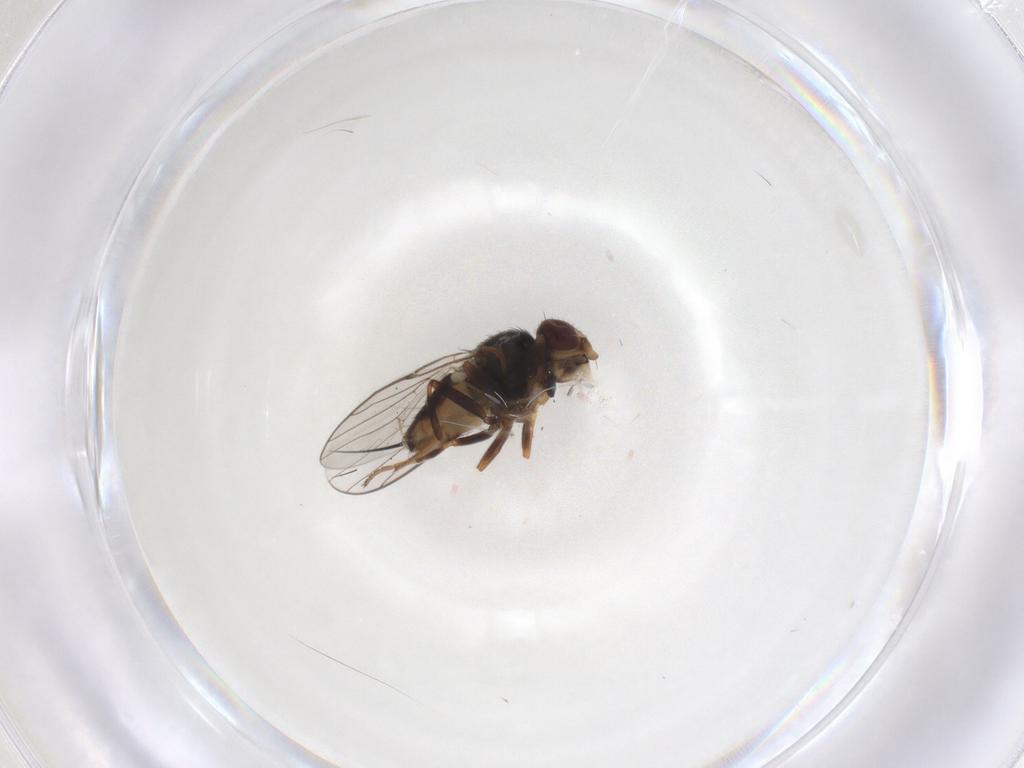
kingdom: Animalia
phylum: Arthropoda
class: Insecta
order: Diptera
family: Chloropidae
